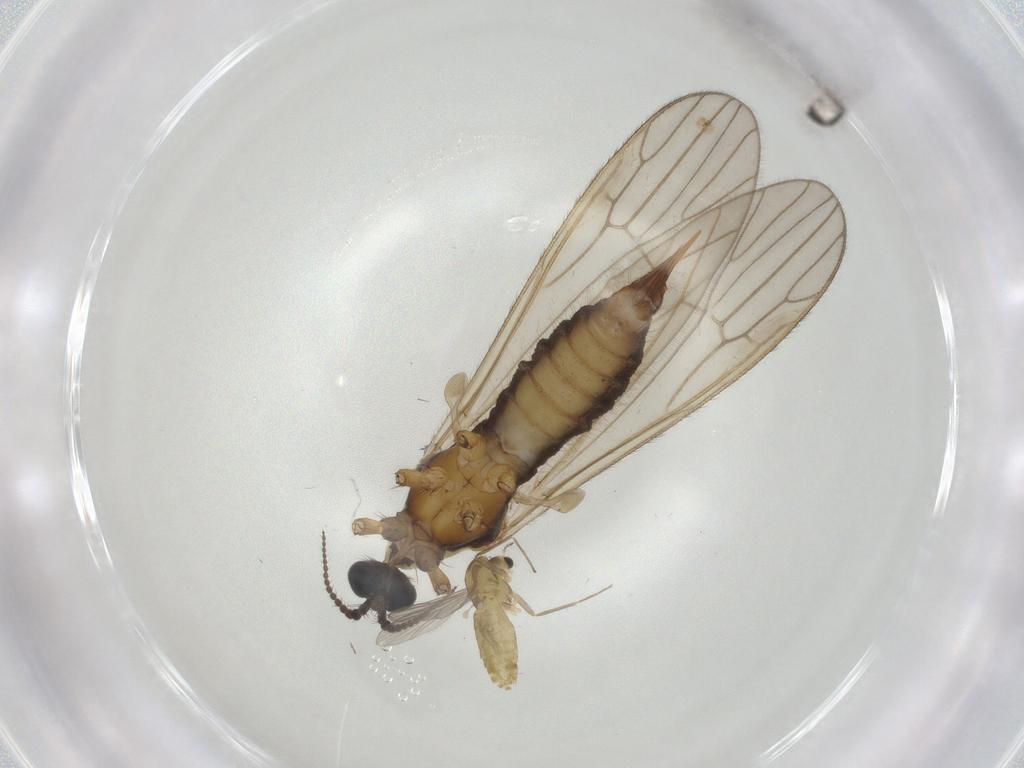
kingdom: Animalia
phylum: Arthropoda
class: Insecta
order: Diptera
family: Agromyzidae
